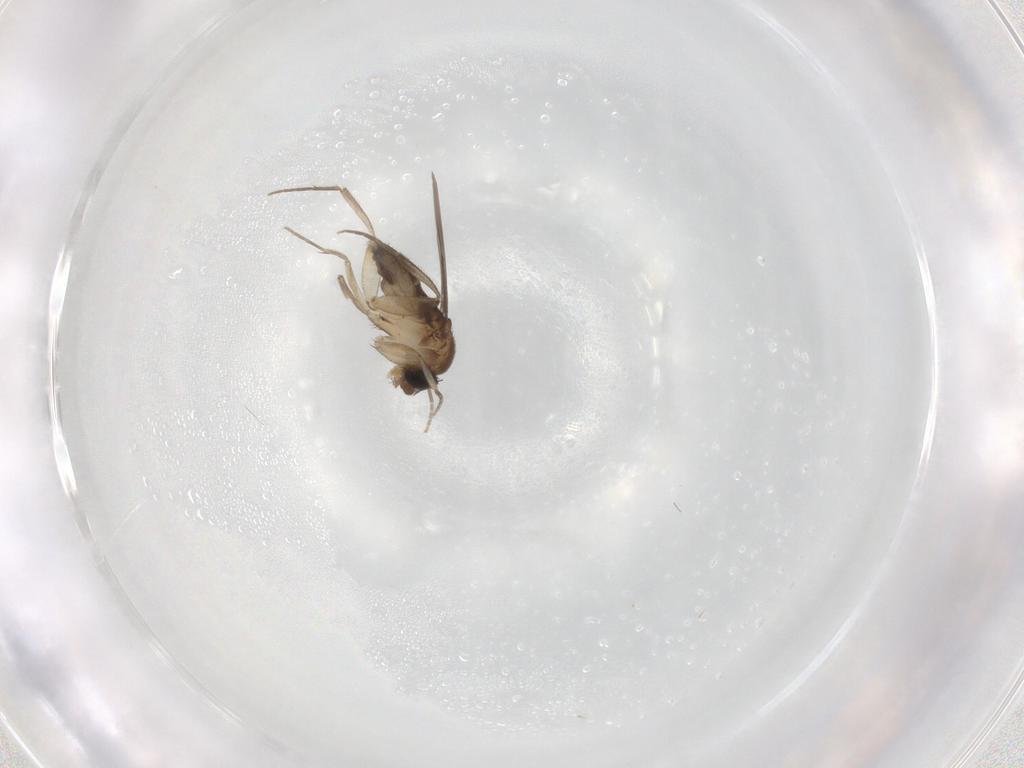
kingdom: Animalia
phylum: Arthropoda
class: Insecta
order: Diptera
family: Phoridae
